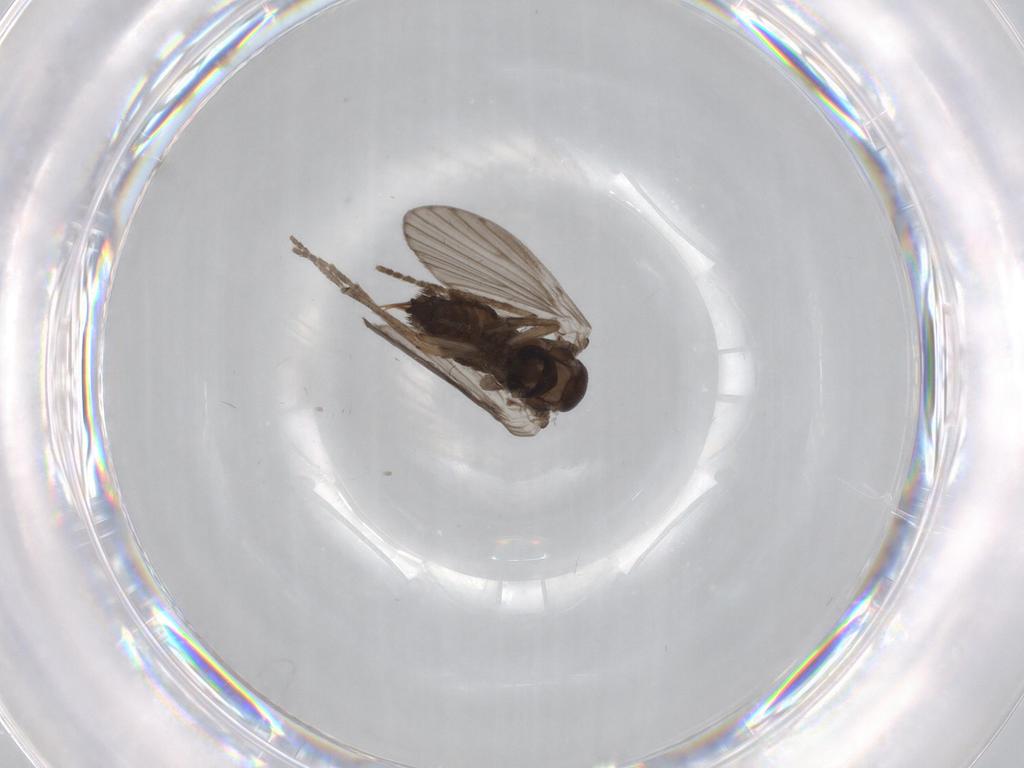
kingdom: Animalia
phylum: Arthropoda
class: Insecta
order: Diptera
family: Psychodidae
